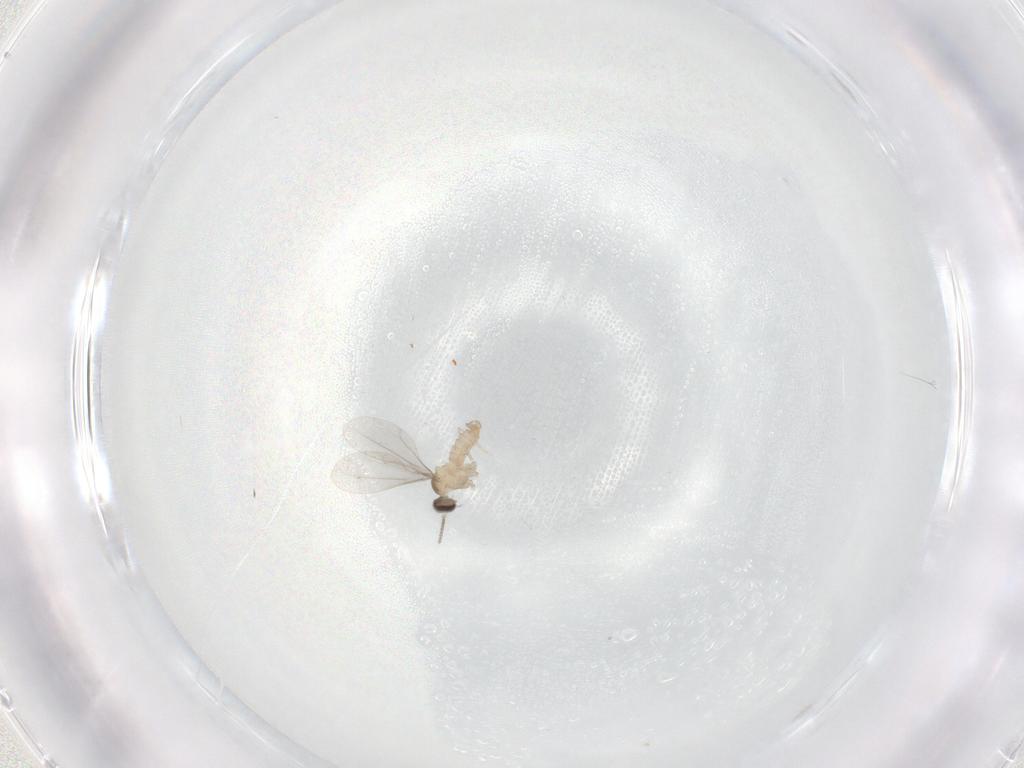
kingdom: Animalia
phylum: Arthropoda
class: Insecta
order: Diptera
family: Cecidomyiidae
